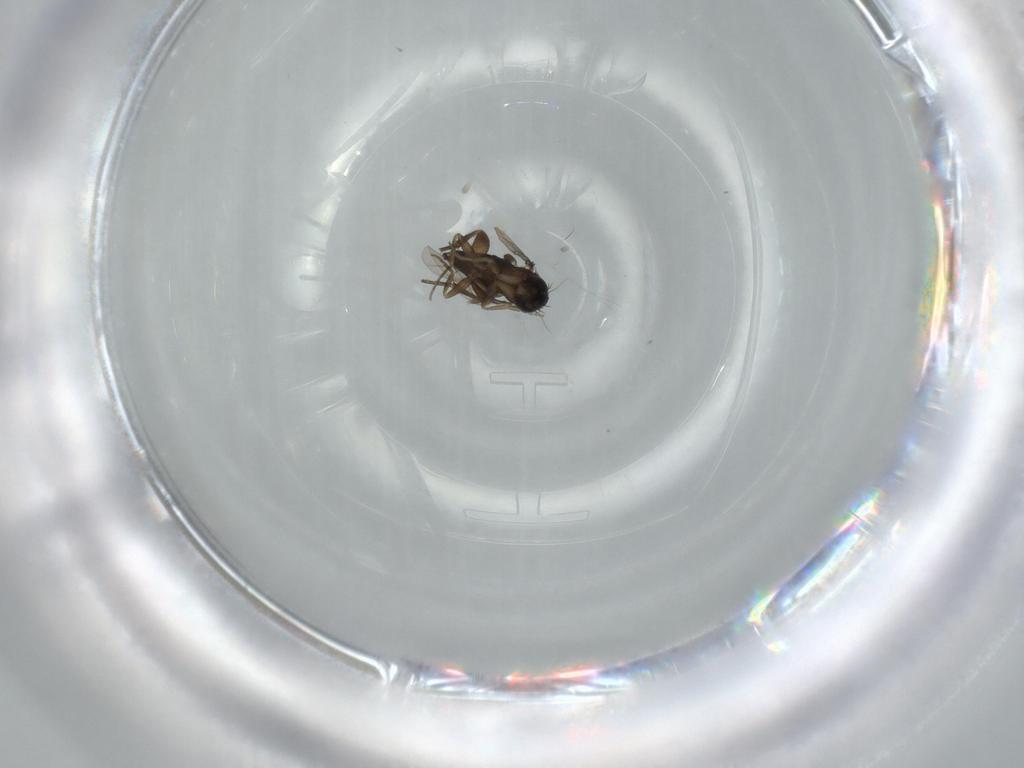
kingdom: Animalia
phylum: Arthropoda
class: Insecta
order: Diptera
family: Phoridae
